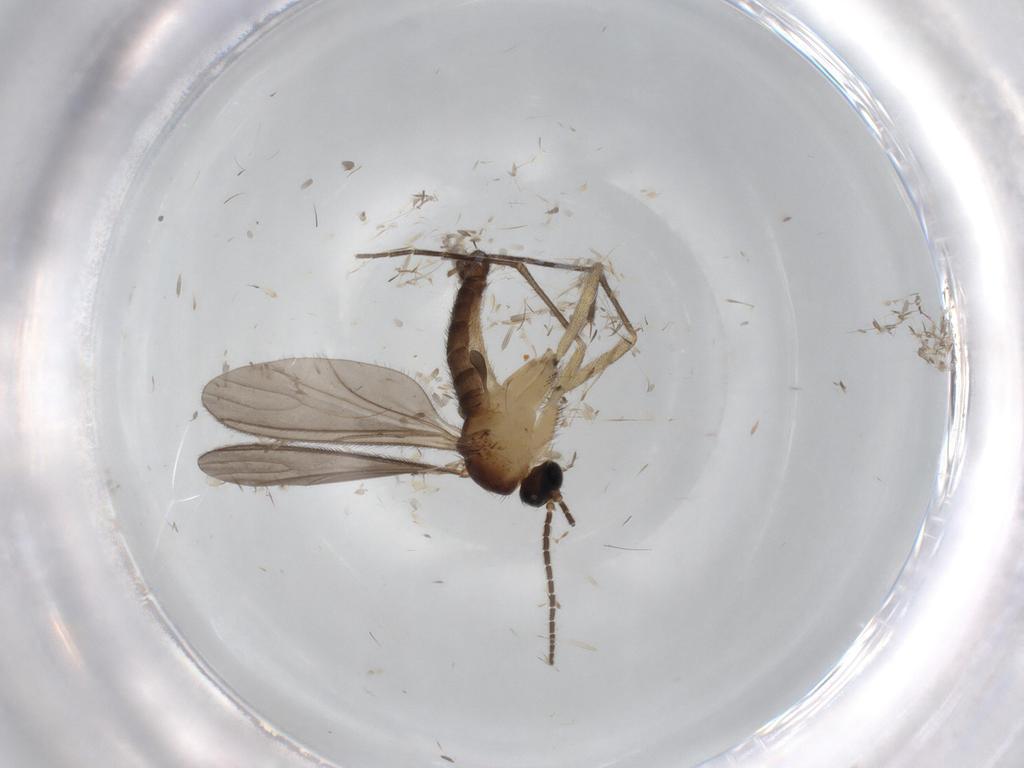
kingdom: Animalia
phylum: Arthropoda
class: Insecta
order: Diptera
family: Sciaridae
